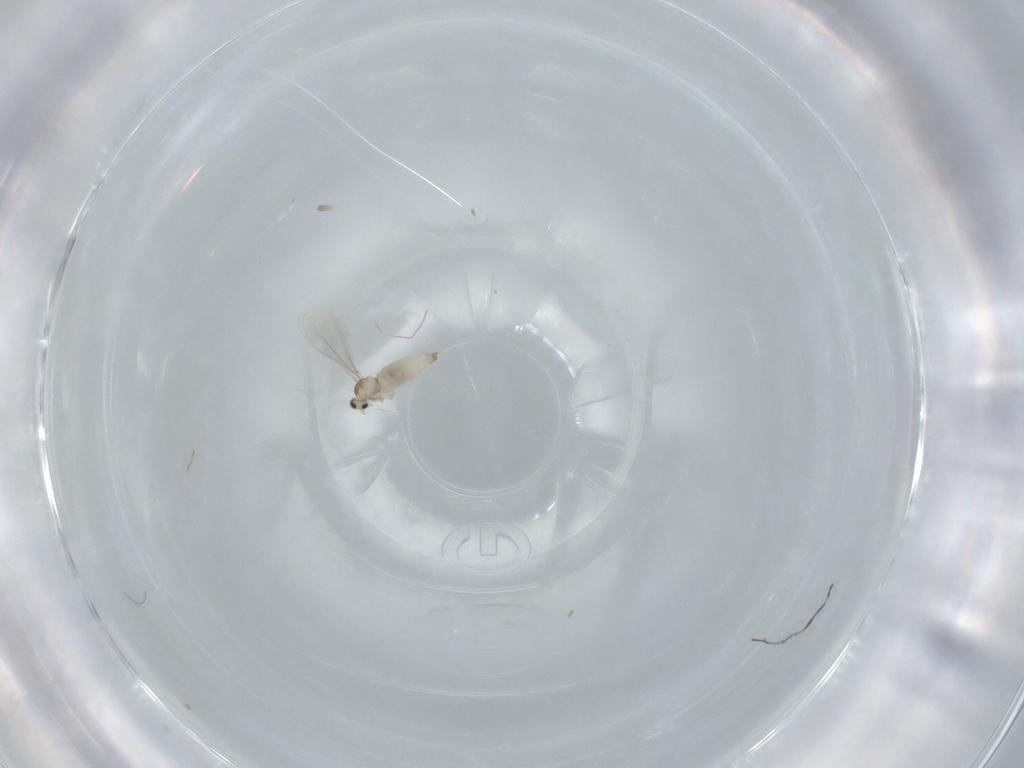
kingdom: Animalia
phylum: Arthropoda
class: Insecta
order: Diptera
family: Cecidomyiidae
